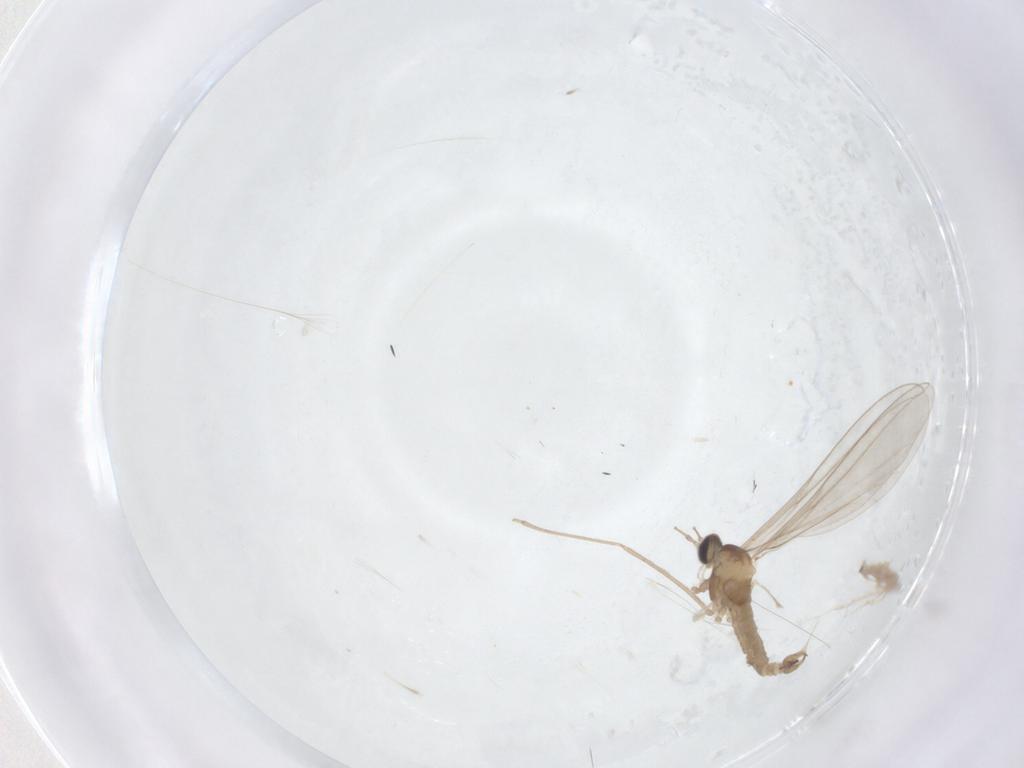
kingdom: Animalia
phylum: Arthropoda
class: Insecta
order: Diptera
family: Cecidomyiidae
